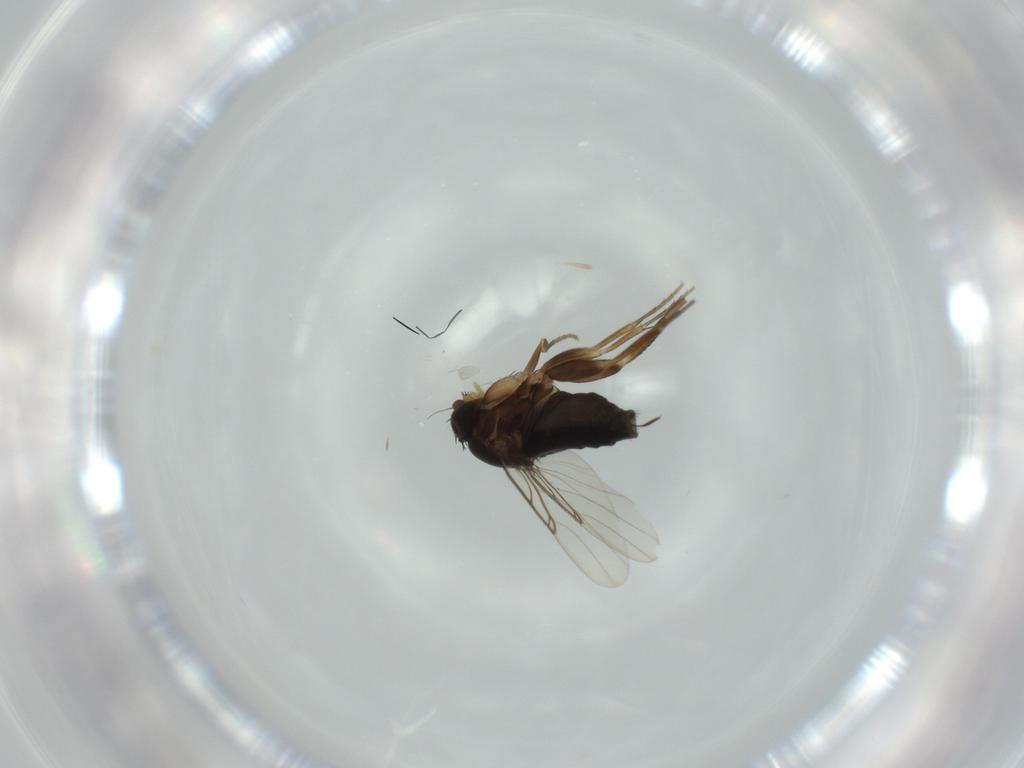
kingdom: Animalia
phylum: Arthropoda
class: Insecta
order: Diptera
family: Phoridae
